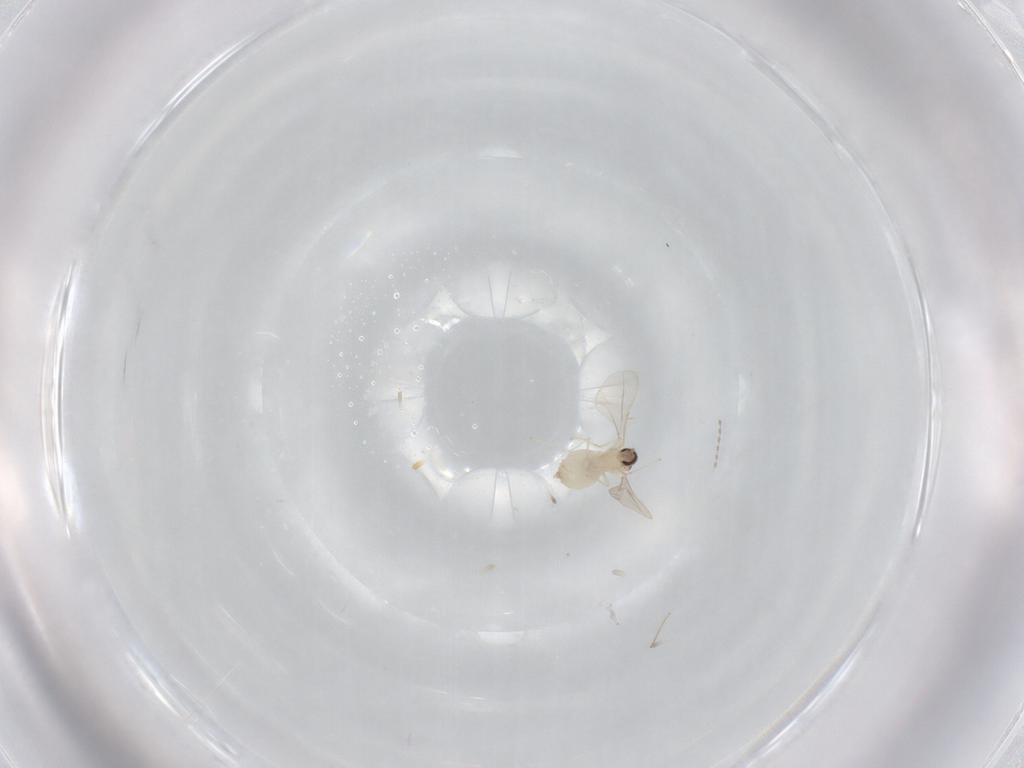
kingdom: Animalia
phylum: Arthropoda
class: Insecta
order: Diptera
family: Cecidomyiidae
